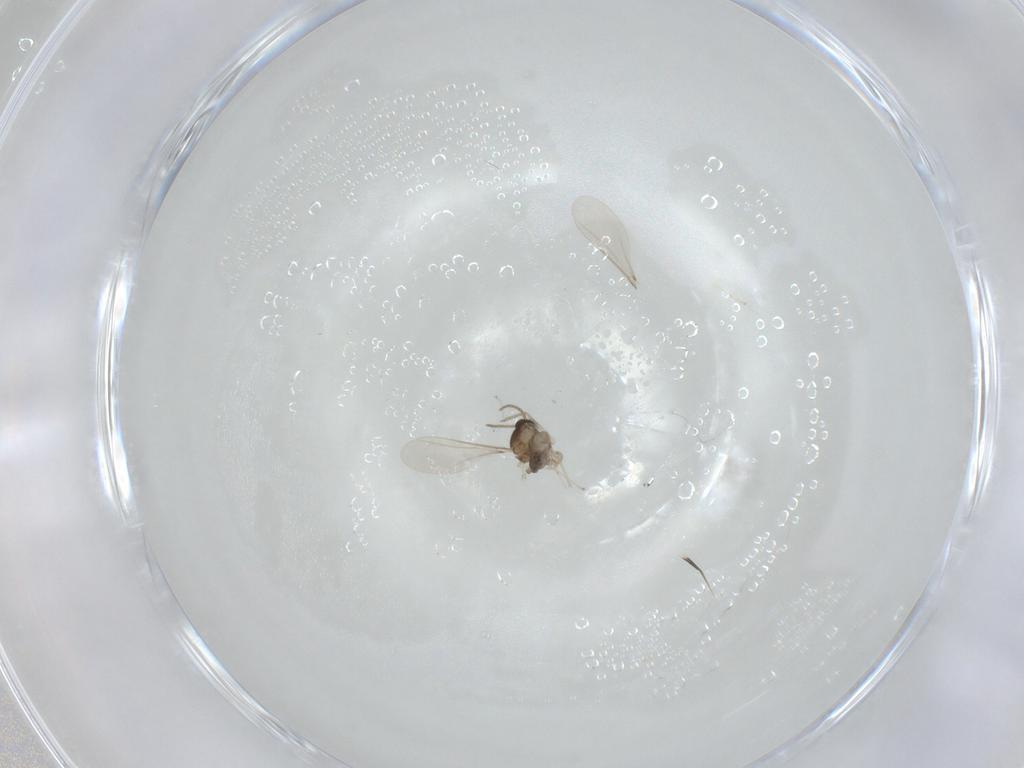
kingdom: Animalia
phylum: Arthropoda
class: Insecta
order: Diptera
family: Cecidomyiidae
